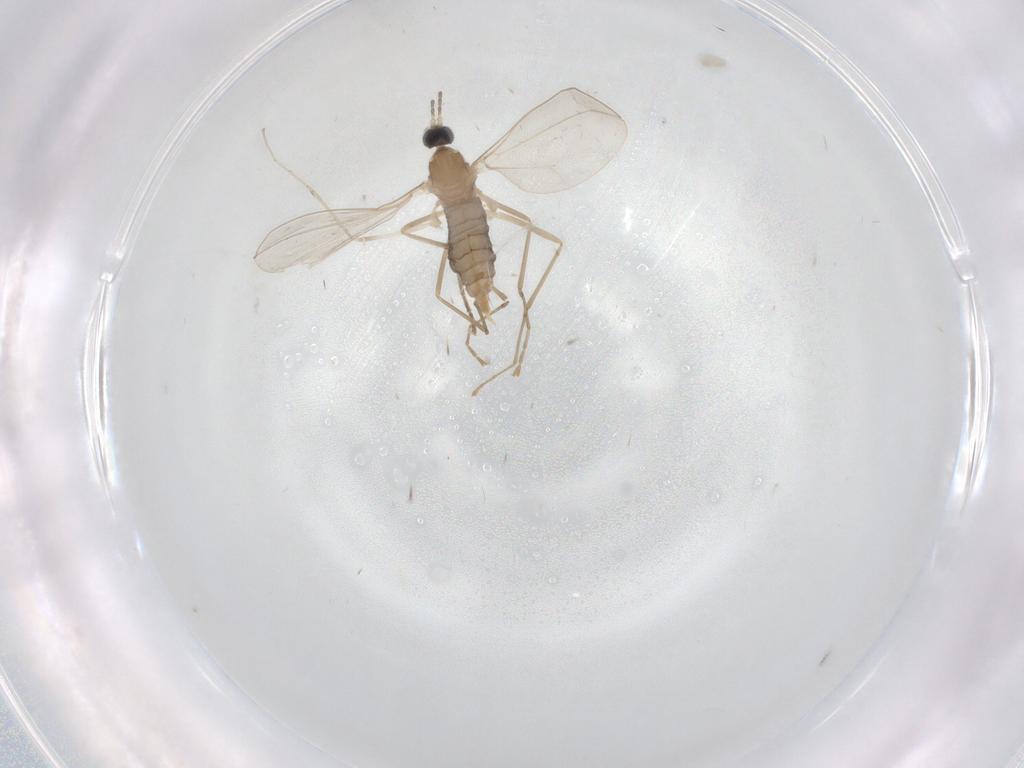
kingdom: Animalia
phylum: Arthropoda
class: Insecta
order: Diptera
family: Cecidomyiidae
